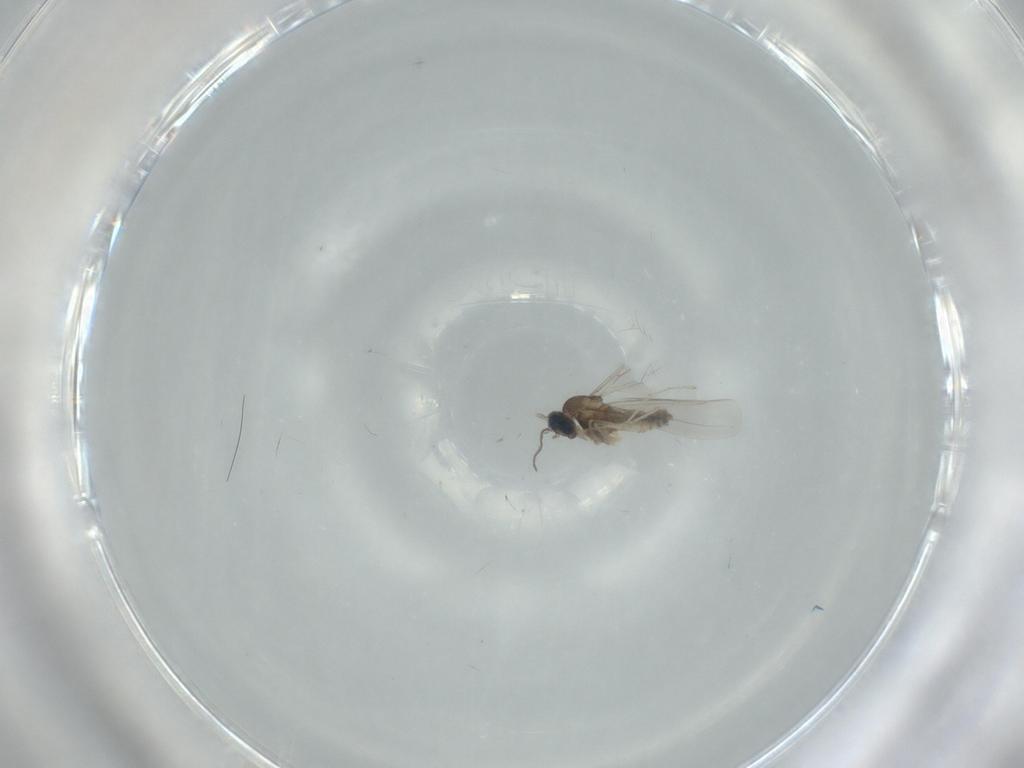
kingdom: Animalia
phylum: Arthropoda
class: Insecta
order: Diptera
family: Cecidomyiidae
